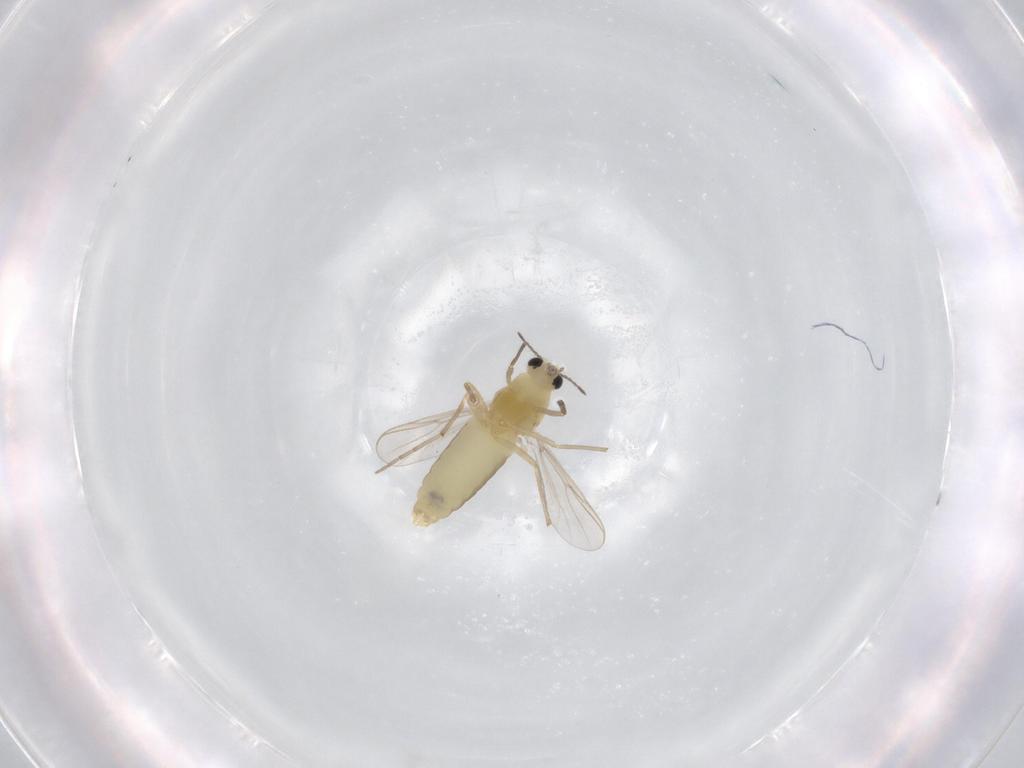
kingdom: Animalia
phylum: Arthropoda
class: Insecta
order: Diptera
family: Chironomidae
